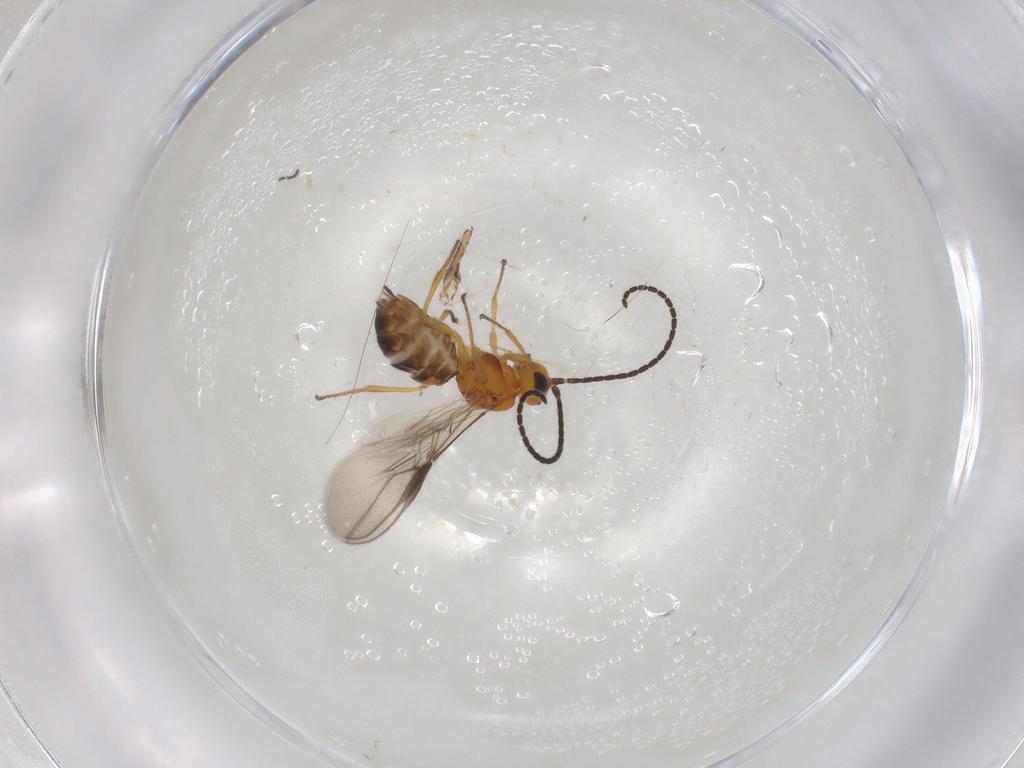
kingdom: Animalia
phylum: Arthropoda
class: Insecta
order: Hymenoptera
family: Braconidae
